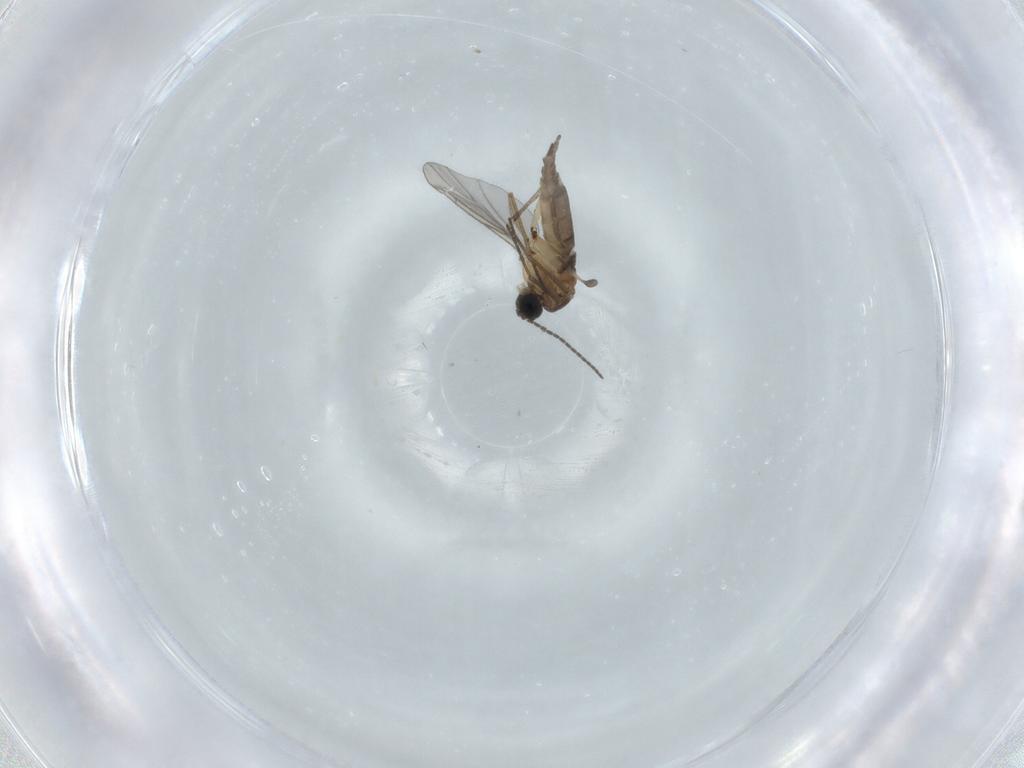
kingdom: Animalia
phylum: Arthropoda
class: Insecta
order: Diptera
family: Sciaridae
